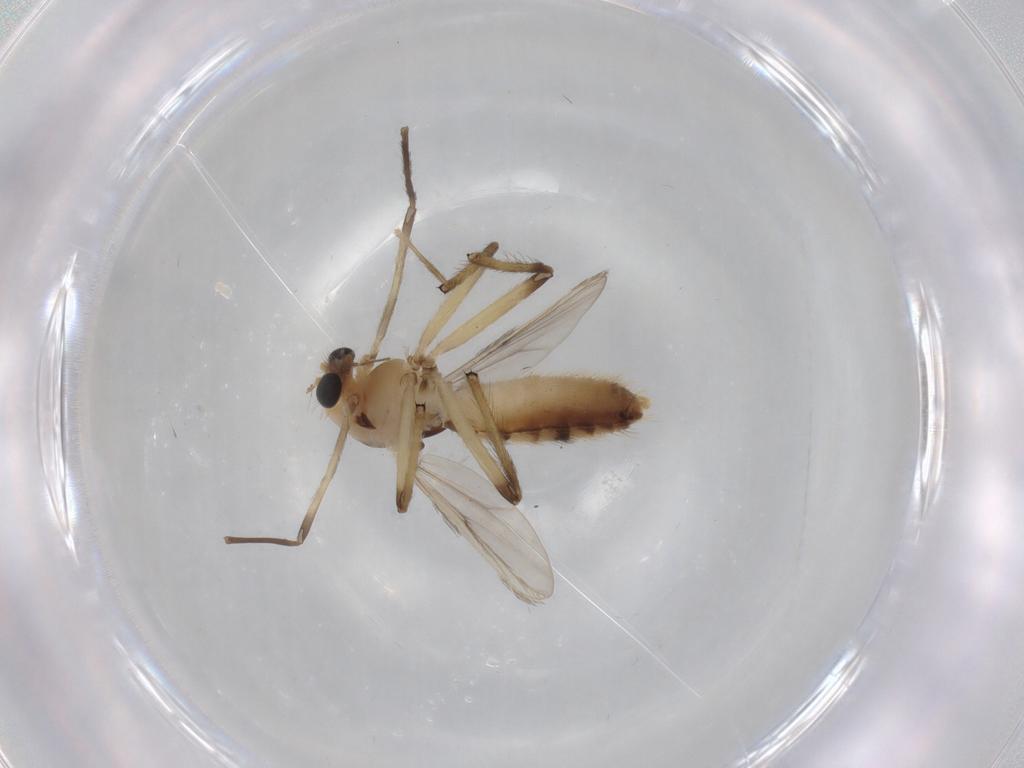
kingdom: Animalia
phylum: Arthropoda
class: Insecta
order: Diptera
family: Chironomidae
